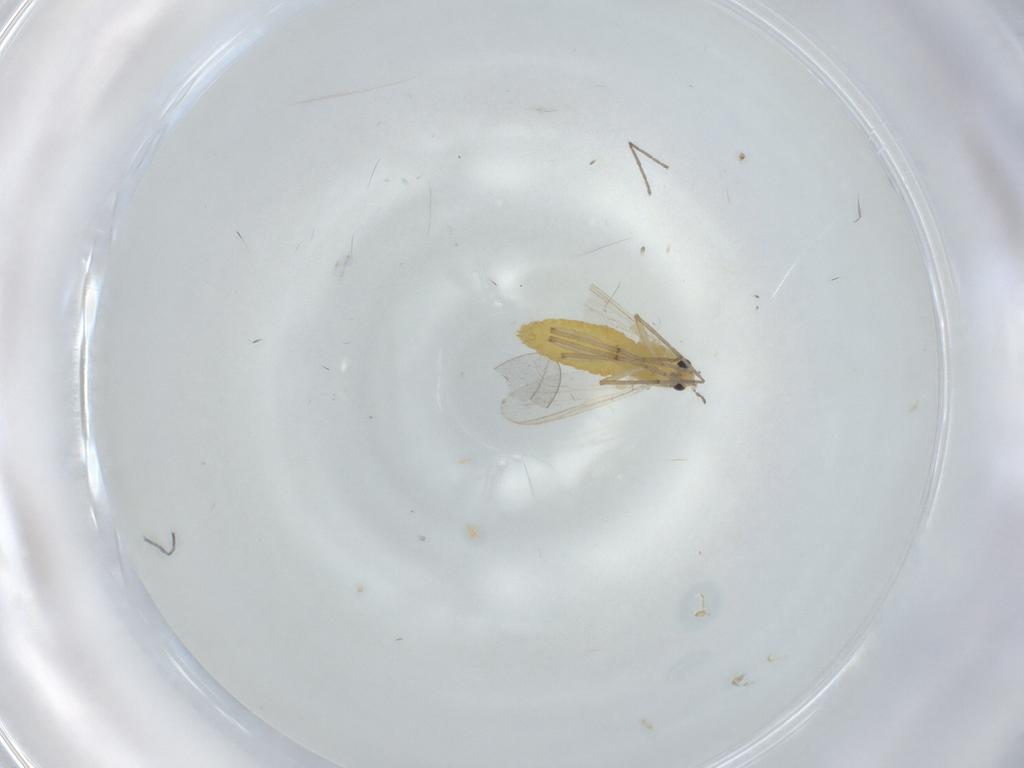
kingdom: Animalia
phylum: Arthropoda
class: Insecta
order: Diptera
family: Chironomidae
